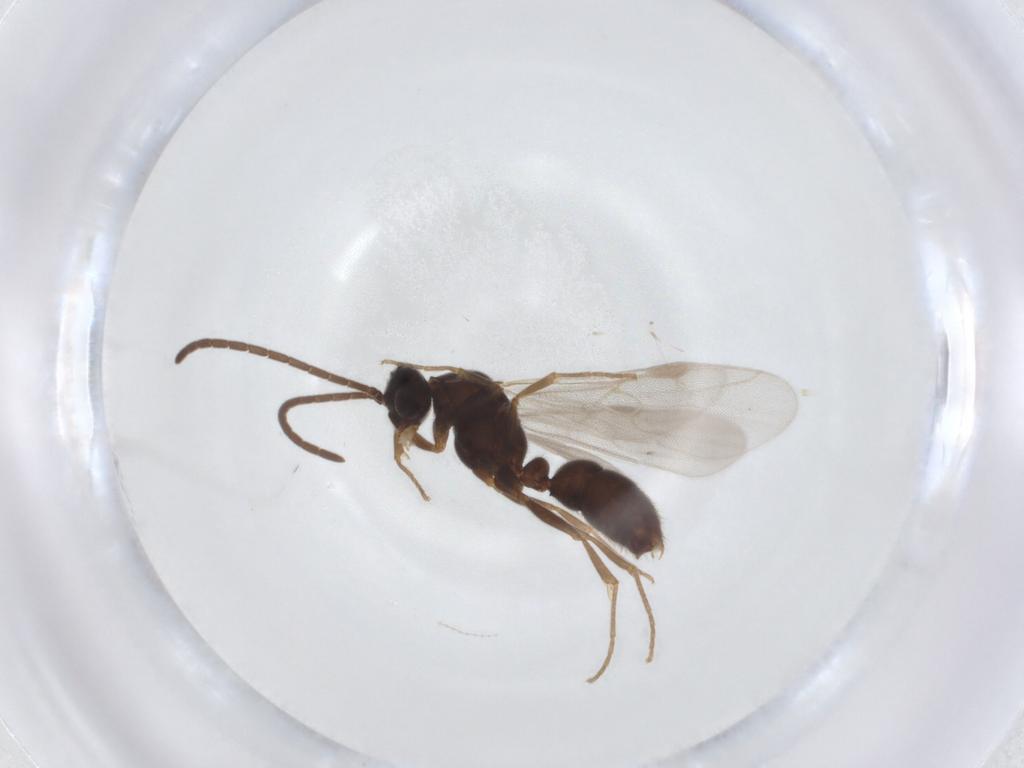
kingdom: Animalia
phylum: Arthropoda
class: Insecta
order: Hymenoptera
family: Formicidae
